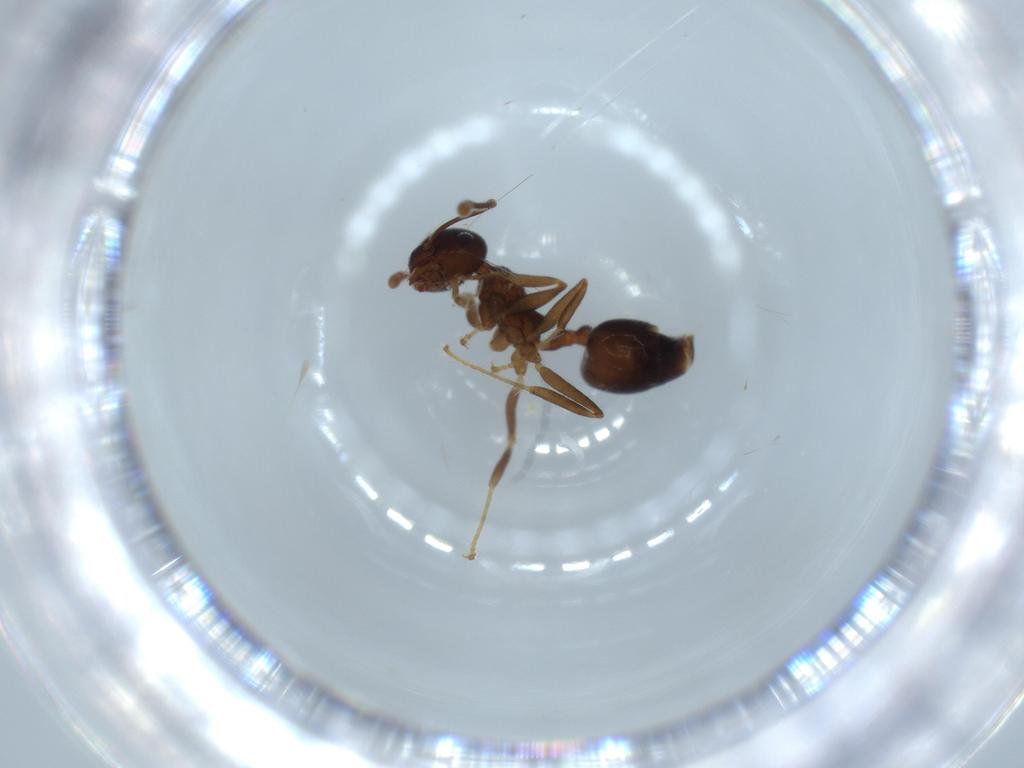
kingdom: Animalia
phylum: Arthropoda
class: Insecta
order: Hymenoptera
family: Formicidae
